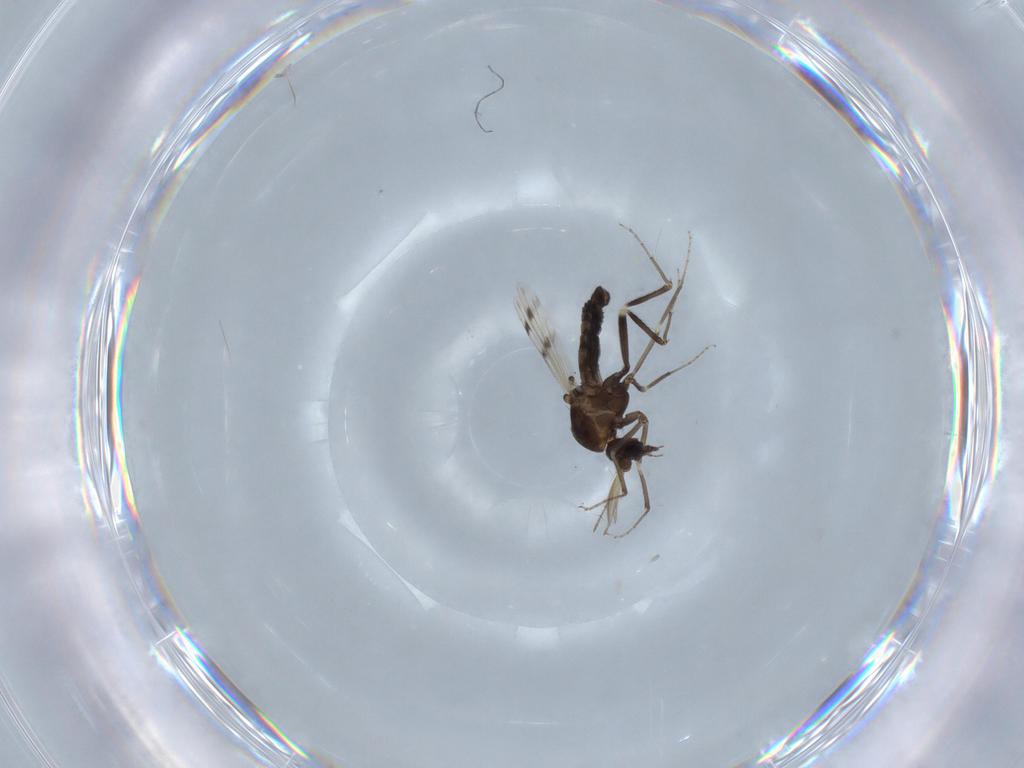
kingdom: Animalia
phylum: Arthropoda
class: Insecta
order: Diptera
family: Ceratopogonidae
